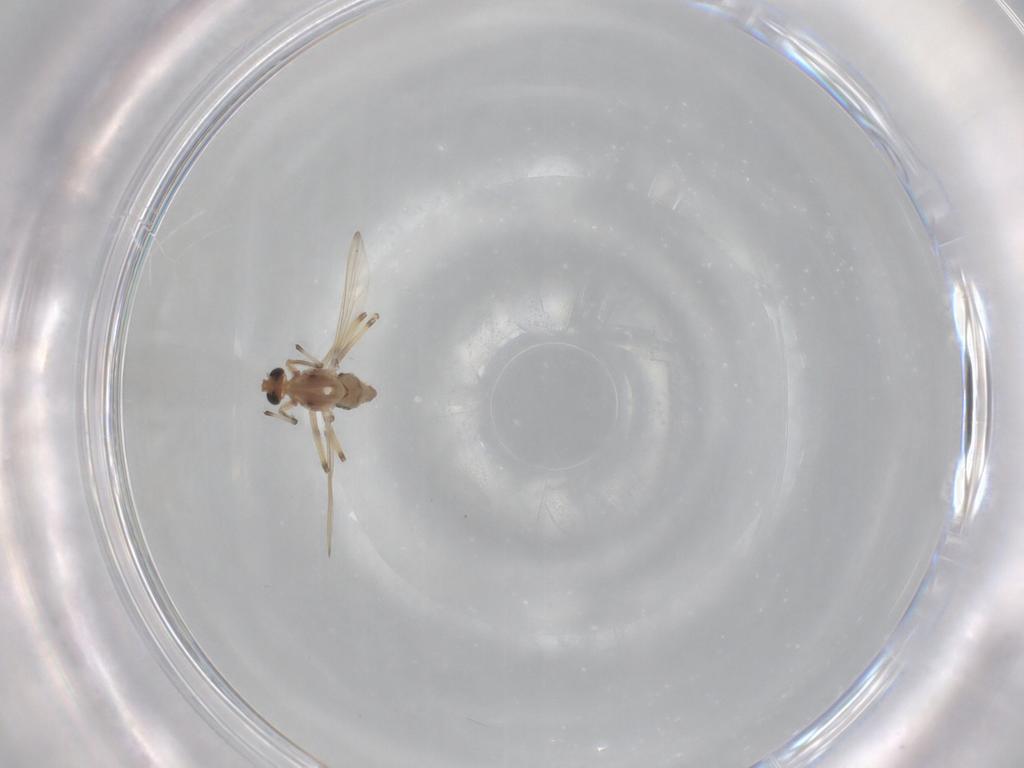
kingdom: Animalia
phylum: Arthropoda
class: Insecta
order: Diptera
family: Chironomidae
